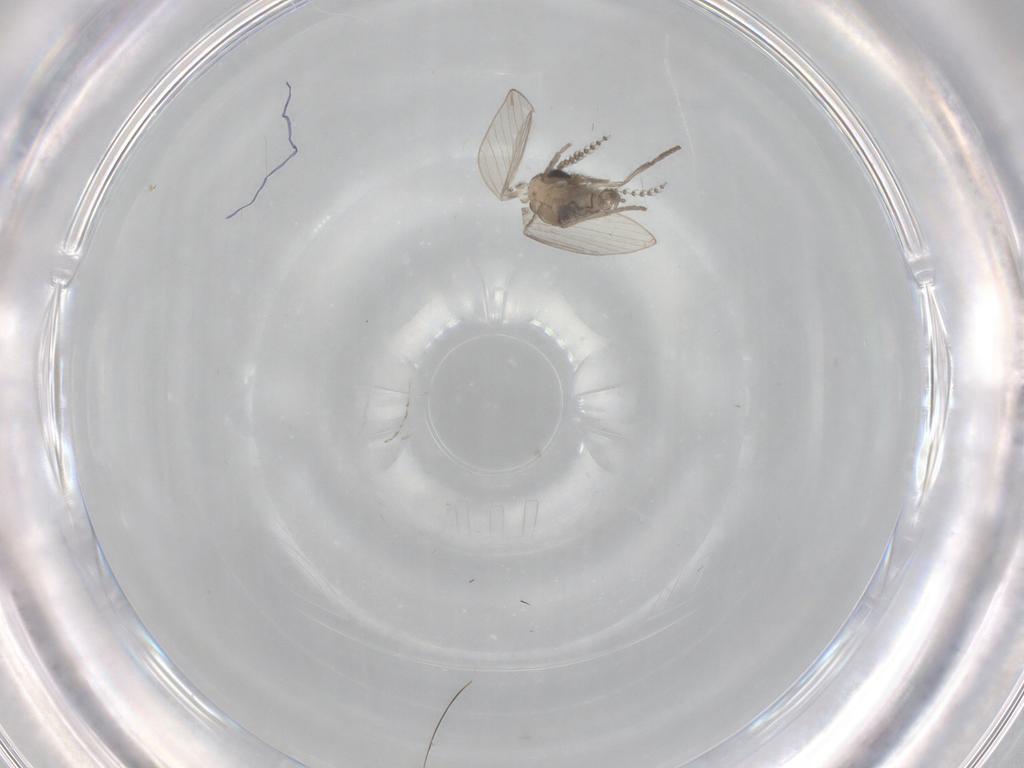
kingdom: Animalia
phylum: Arthropoda
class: Insecta
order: Diptera
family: Psychodidae
